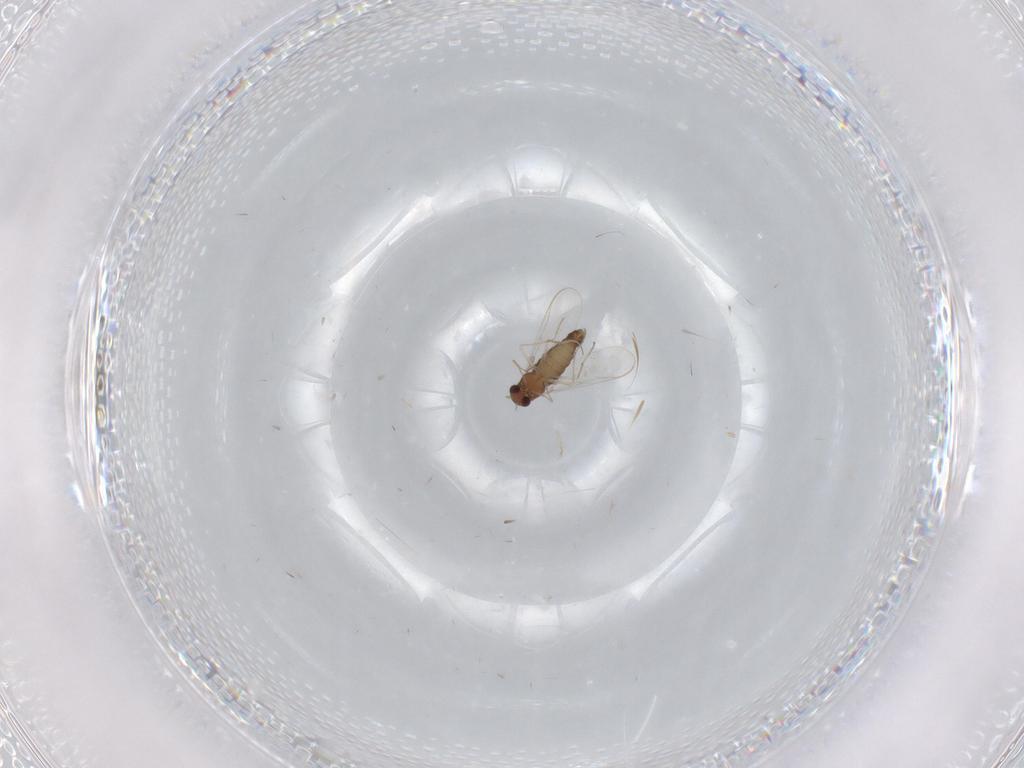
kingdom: Animalia
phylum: Arthropoda
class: Insecta
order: Diptera
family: Chironomidae
